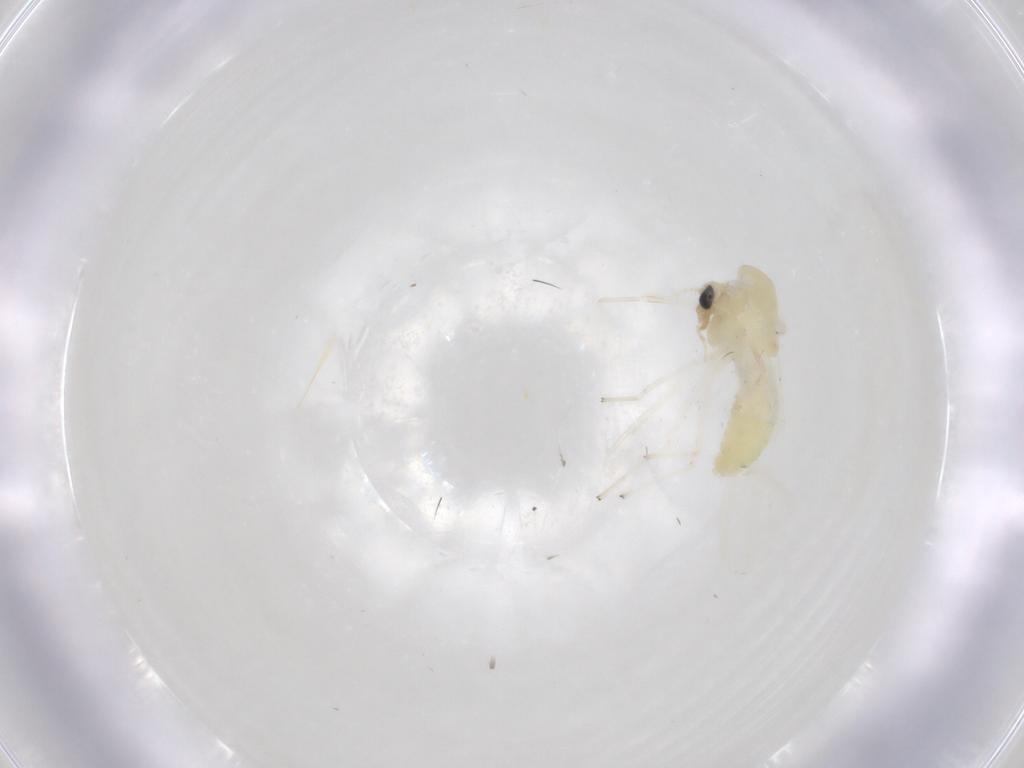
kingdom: Animalia
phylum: Arthropoda
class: Insecta
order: Diptera
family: Chironomidae
